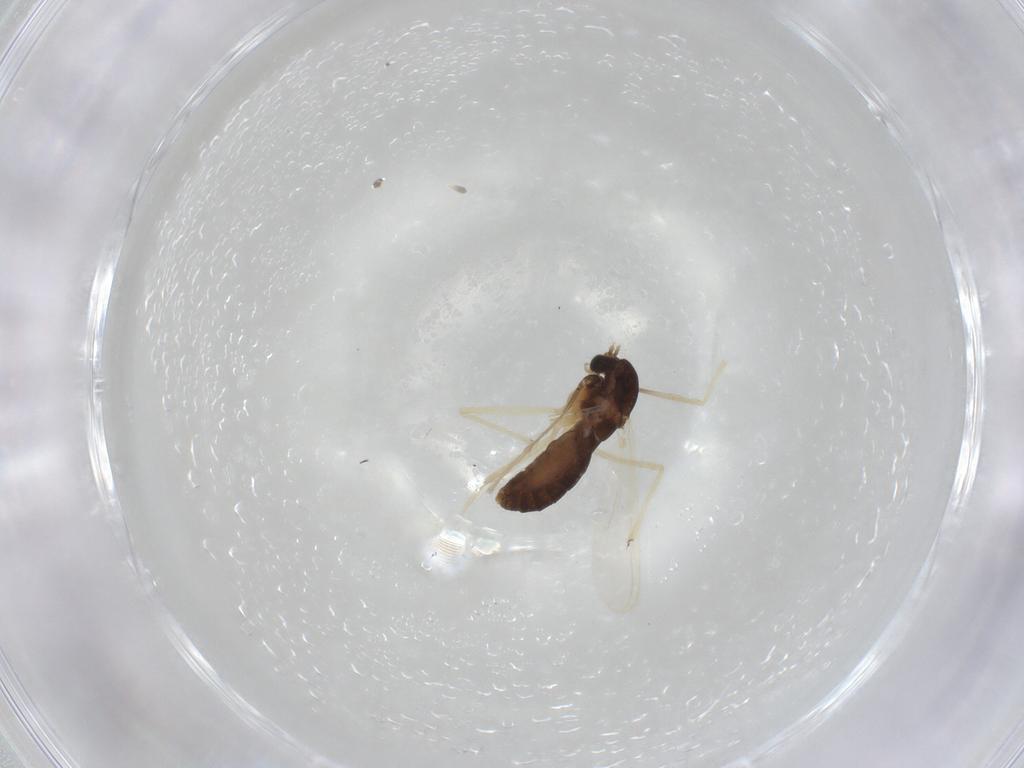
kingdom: Animalia
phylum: Arthropoda
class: Insecta
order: Diptera
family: Chironomidae
